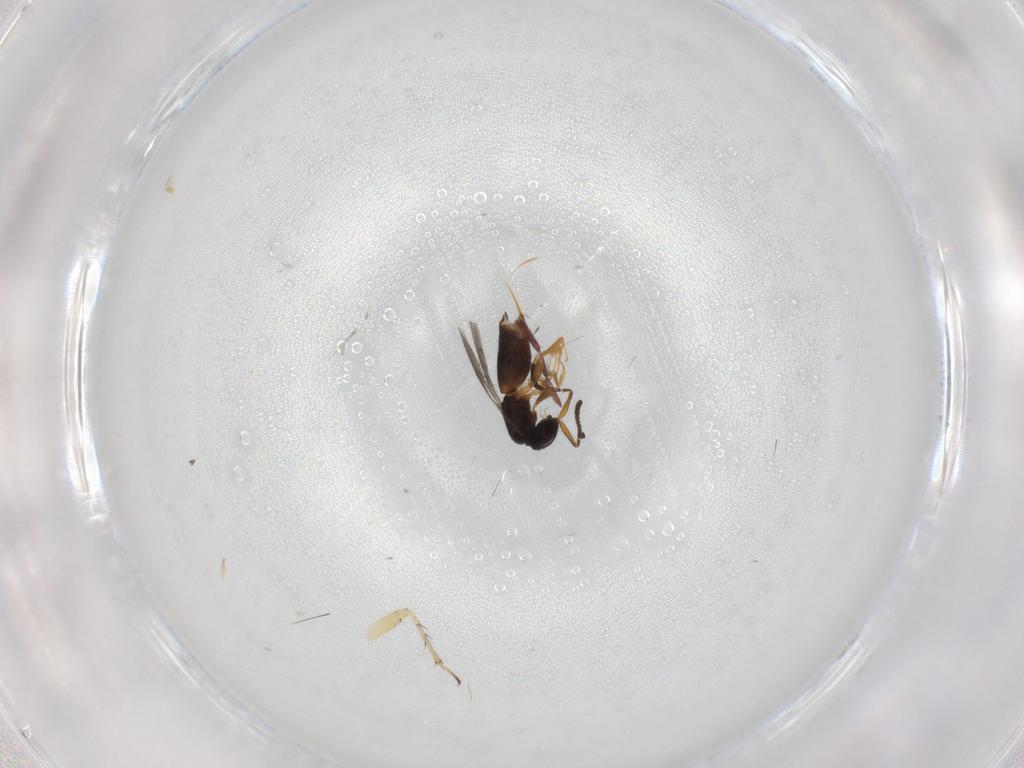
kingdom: Animalia
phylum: Arthropoda
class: Insecta
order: Hymenoptera
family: Ceraphronidae
